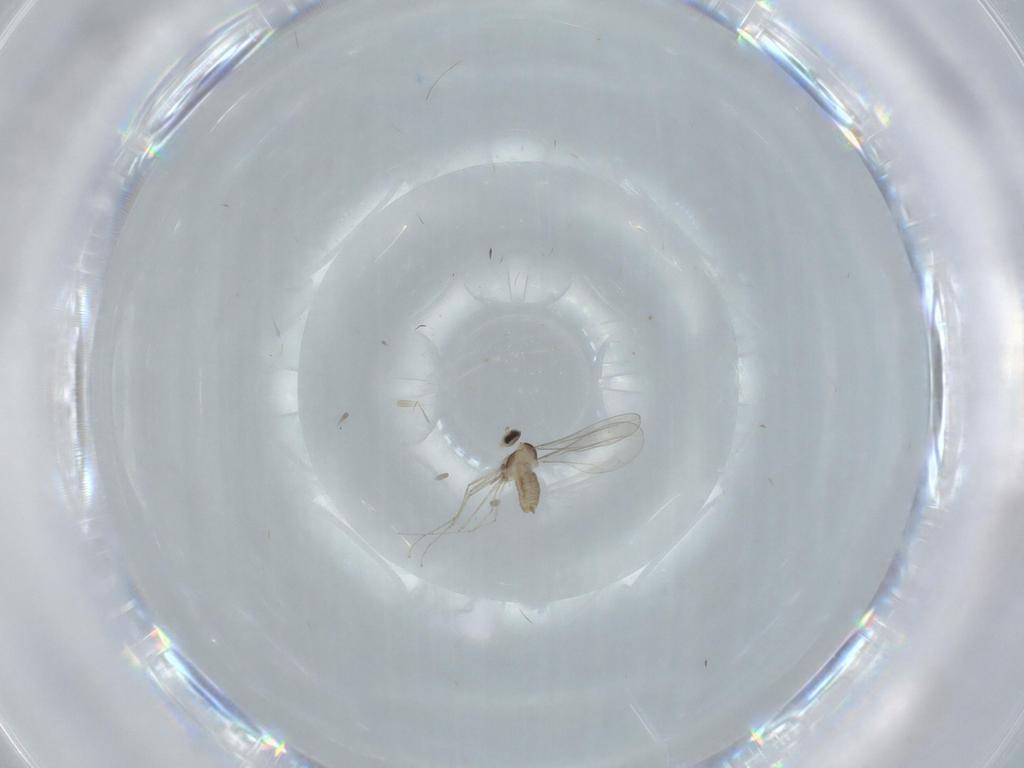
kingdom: Animalia
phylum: Arthropoda
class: Insecta
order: Diptera
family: Cecidomyiidae
